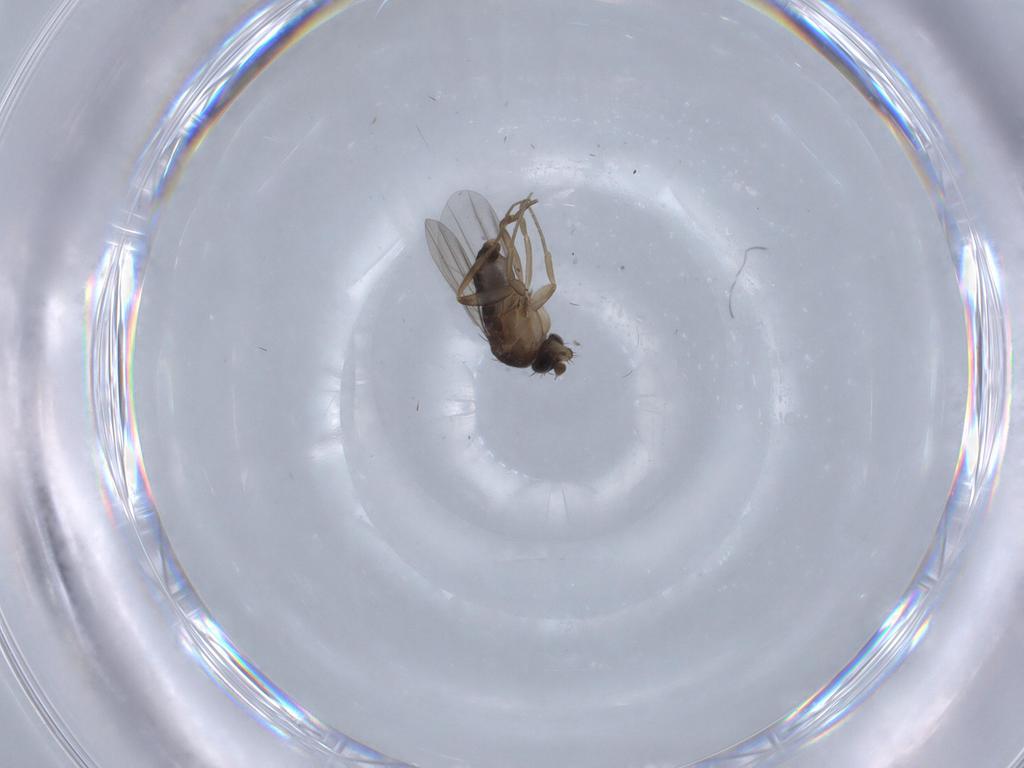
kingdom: Animalia
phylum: Arthropoda
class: Insecta
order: Diptera
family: Phoridae
